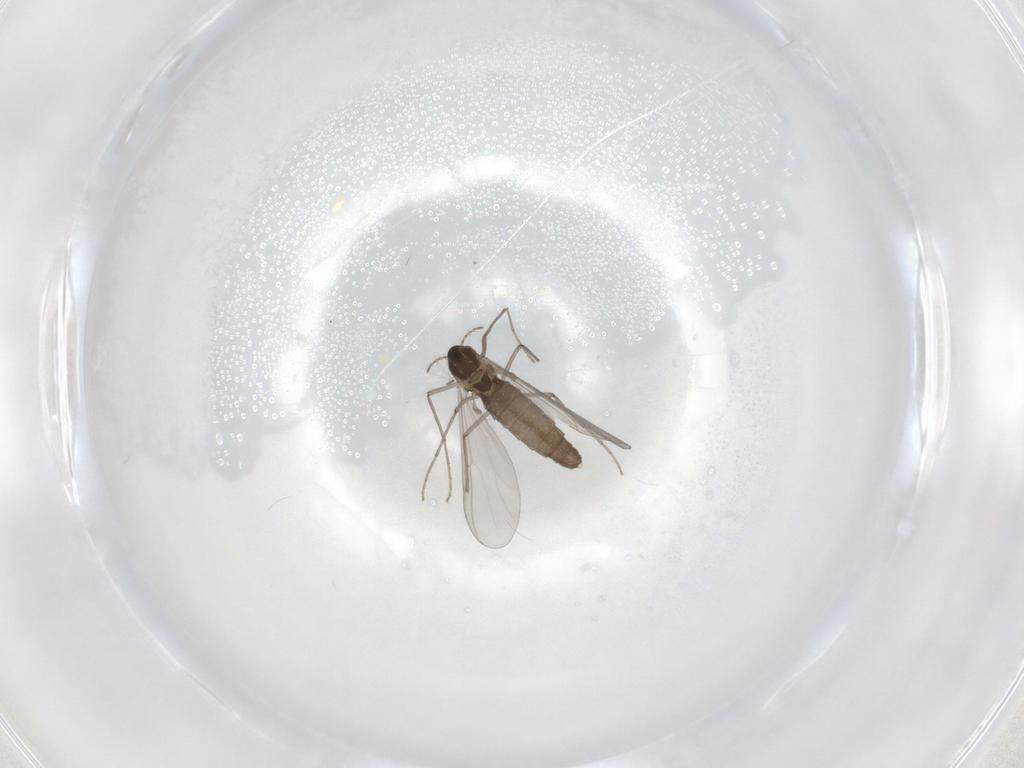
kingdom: Animalia
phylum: Arthropoda
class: Insecta
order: Diptera
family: Chironomidae
